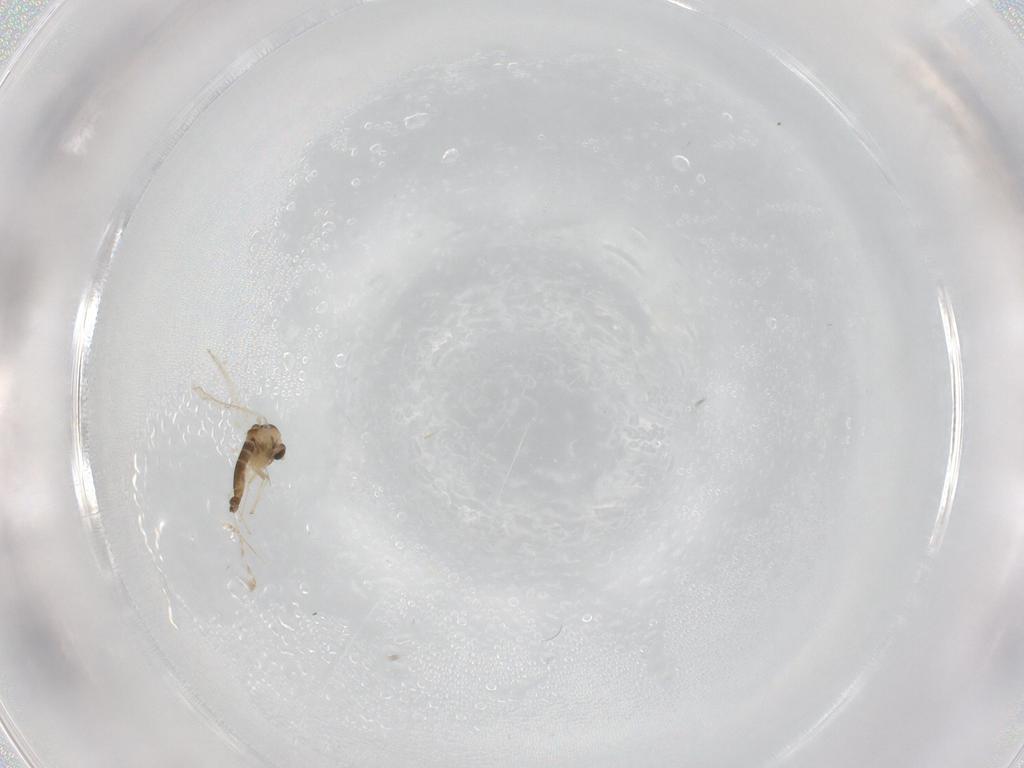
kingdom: Animalia
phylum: Arthropoda
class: Insecta
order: Diptera
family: Chironomidae
